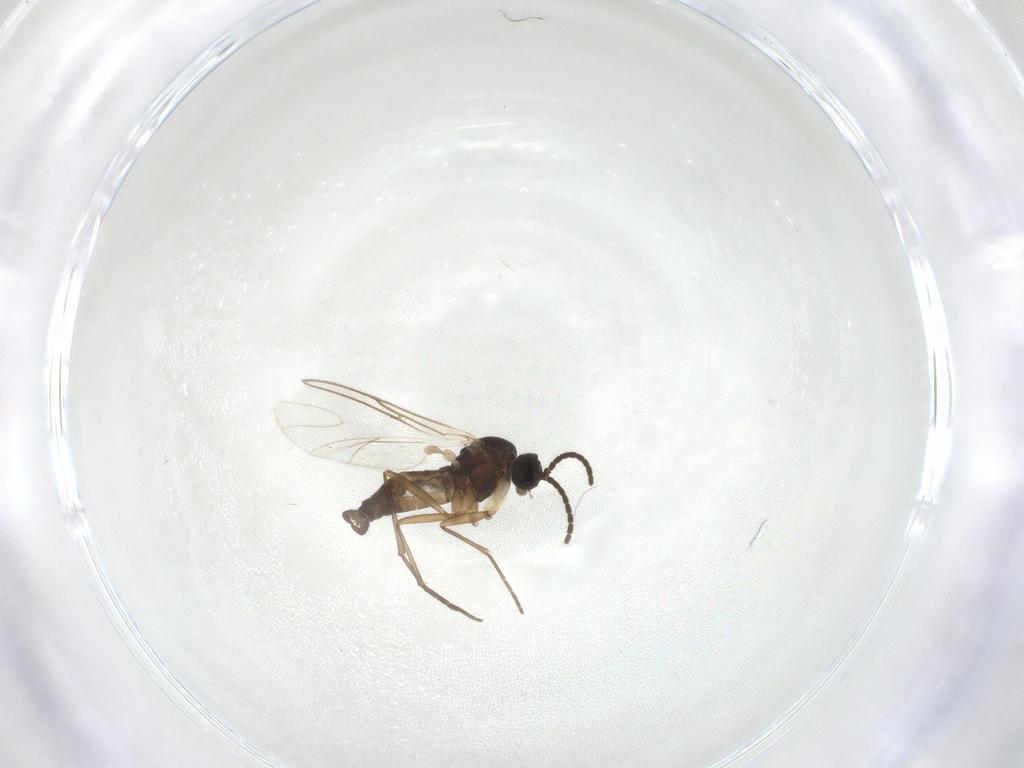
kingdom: Animalia
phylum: Arthropoda
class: Insecta
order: Diptera
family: Sciaridae
